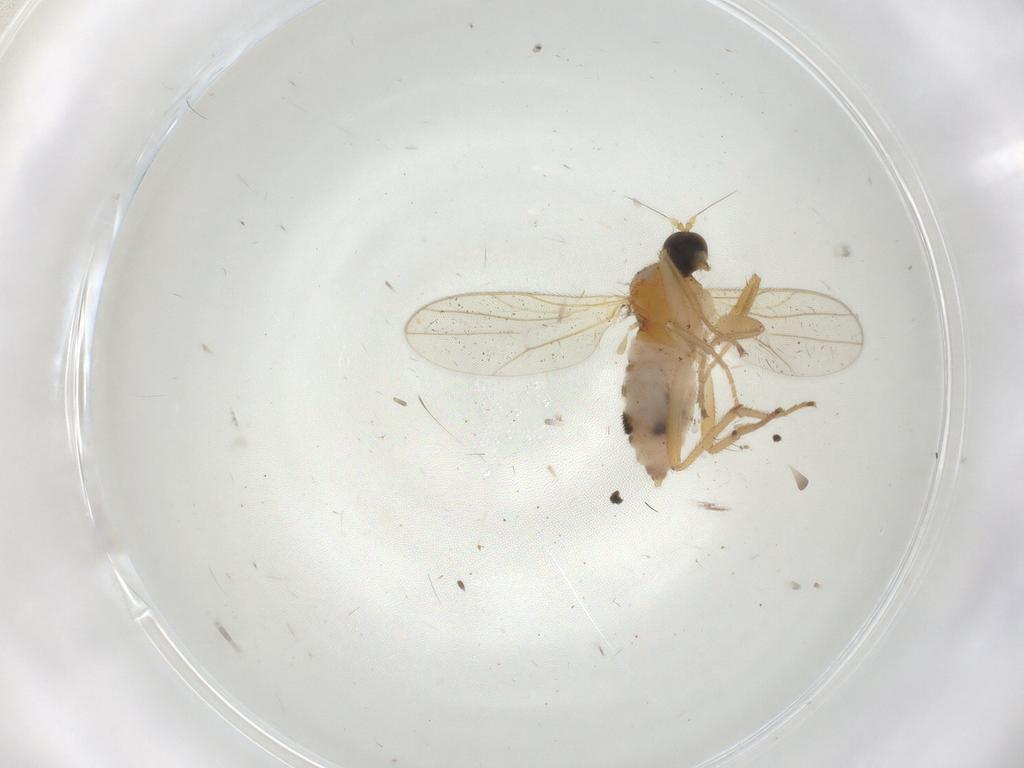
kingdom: Animalia
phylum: Arthropoda
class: Insecta
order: Diptera
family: Hybotidae
